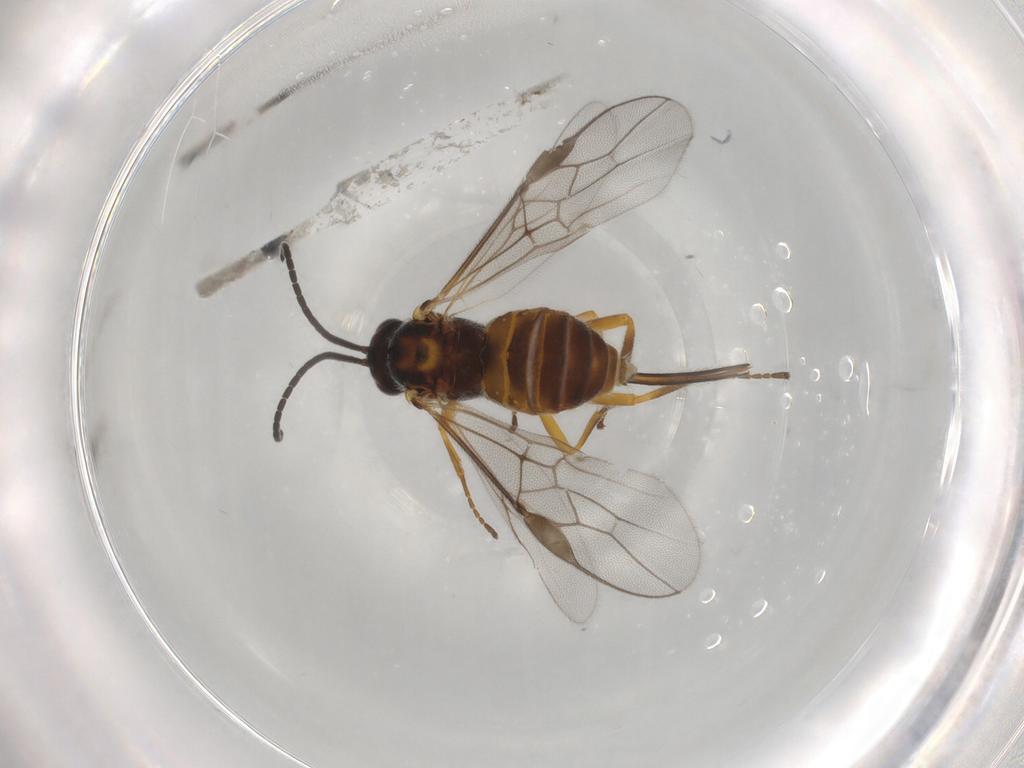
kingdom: Animalia
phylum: Arthropoda
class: Insecta
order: Hymenoptera
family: Braconidae
